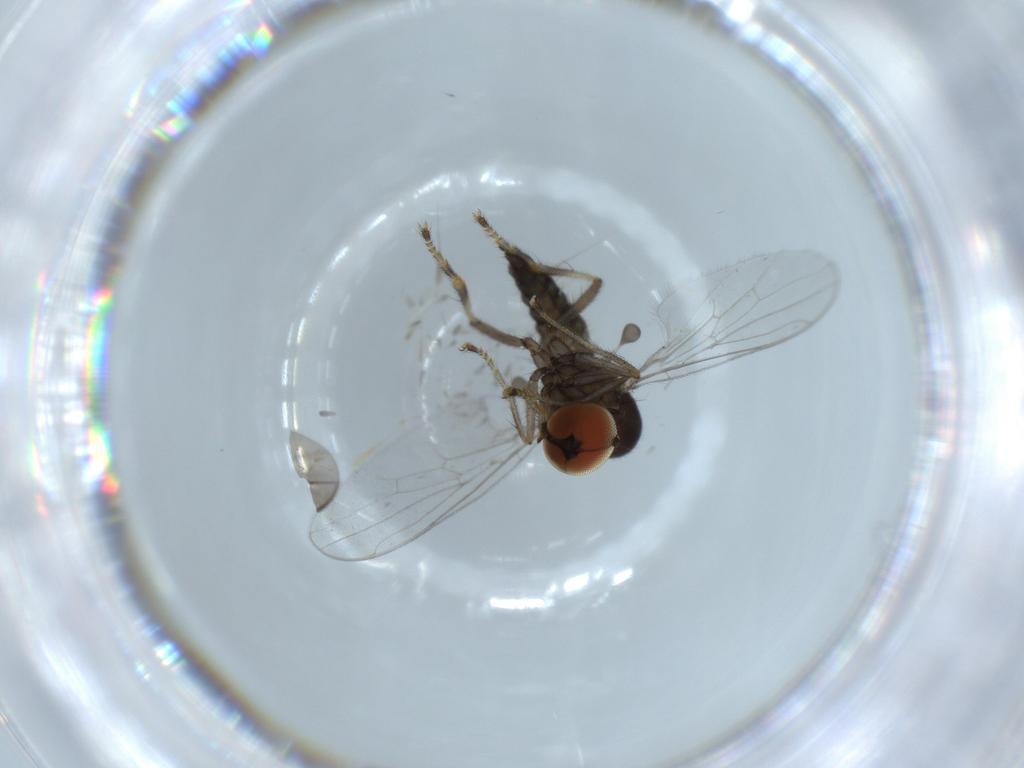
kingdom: Animalia
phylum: Arthropoda
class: Insecta
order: Diptera
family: Hybotidae
